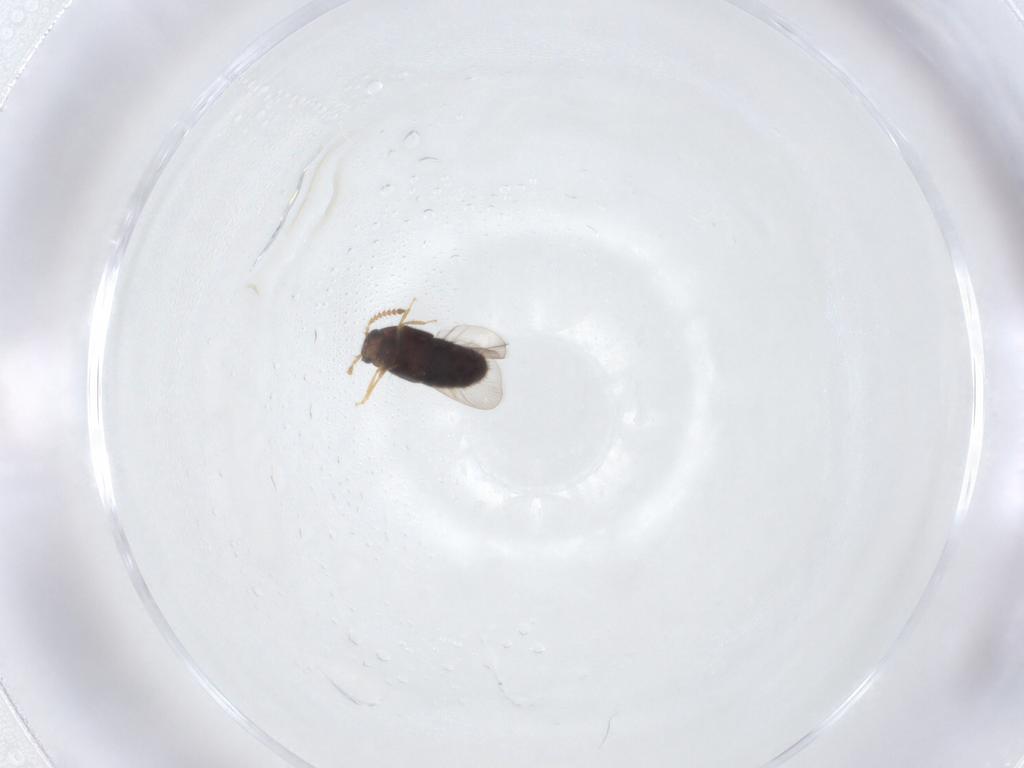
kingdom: Animalia
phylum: Arthropoda
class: Insecta
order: Coleoptera
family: Staphylinidae
